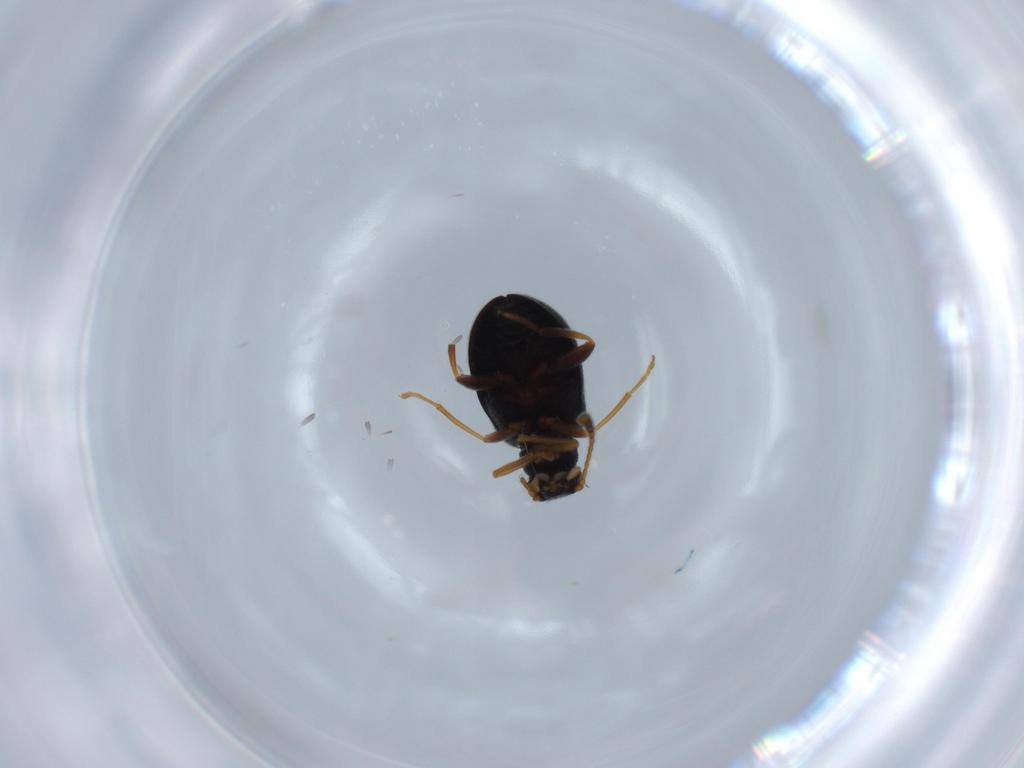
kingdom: Animalia
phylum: Arthropoda
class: Insecta
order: Coleoptera
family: Aderidae
